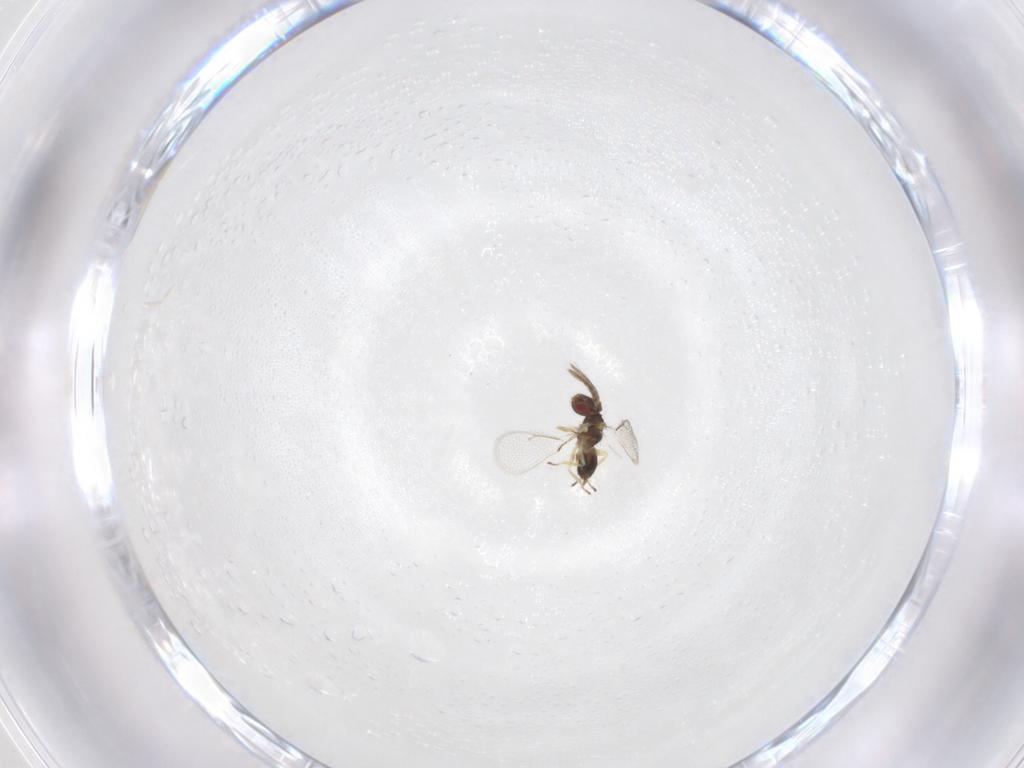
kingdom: Animalia
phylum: Arthropoda
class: Insecta
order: Hymenoptera
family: Eulophidae
